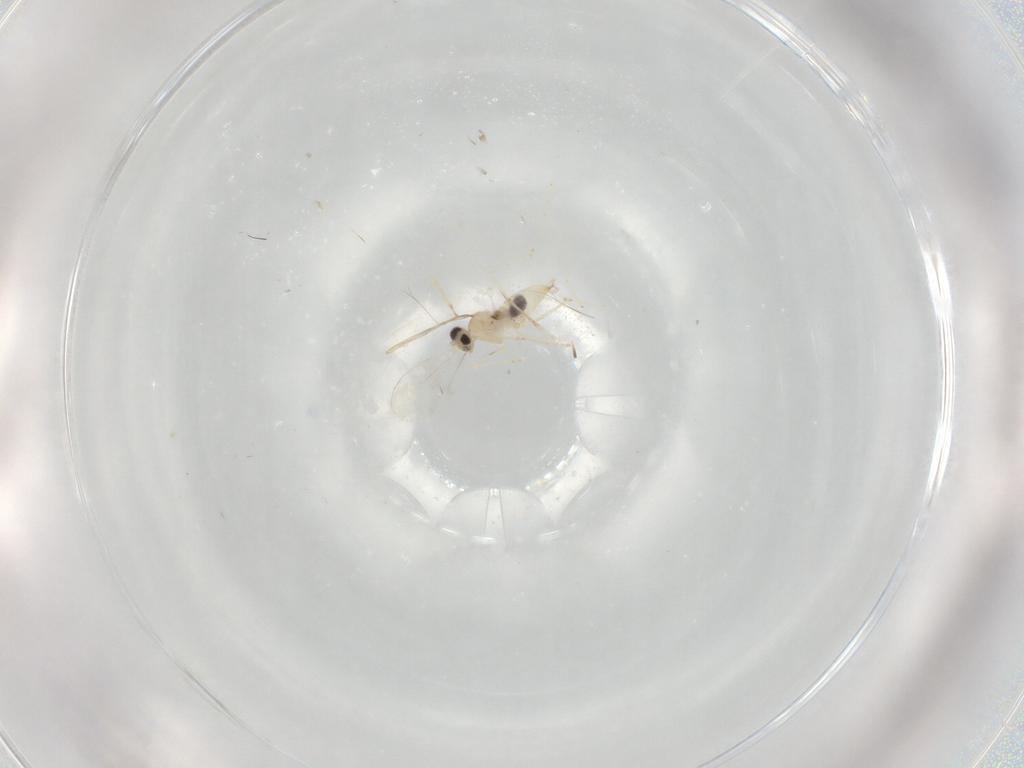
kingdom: Animalia
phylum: Arthropoda
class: Insecta
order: Diptera
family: Cecidomyiidae
